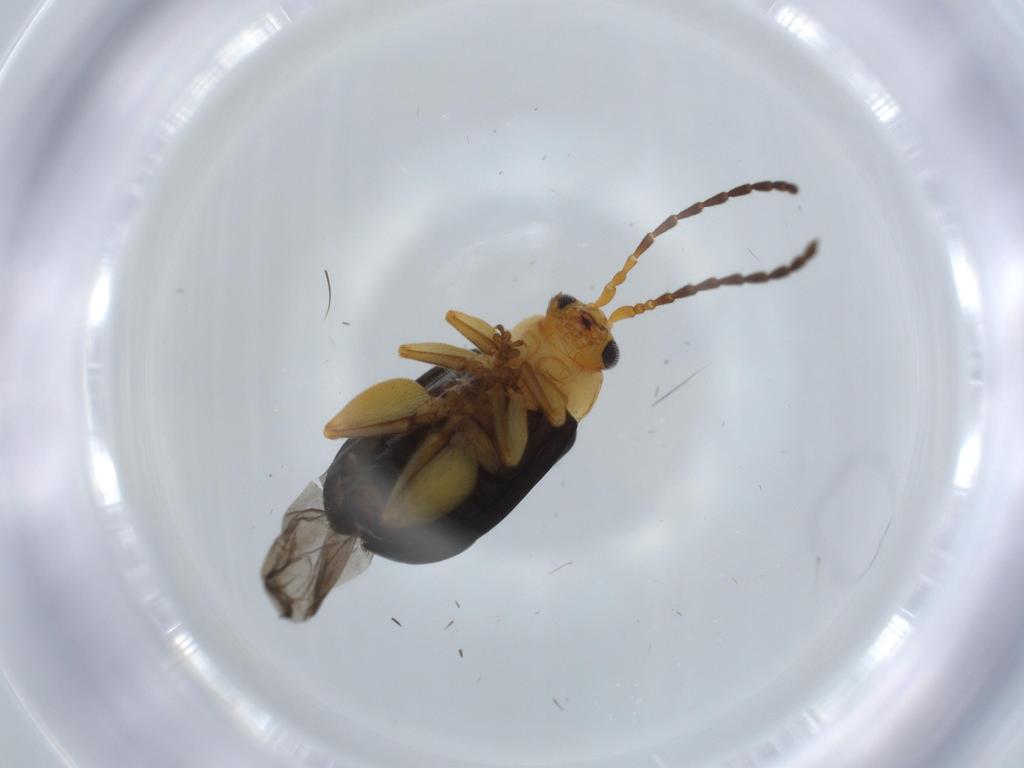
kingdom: Animalia
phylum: Arthropoda
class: Insecta
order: Coleoptera
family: Chrysomelidae
